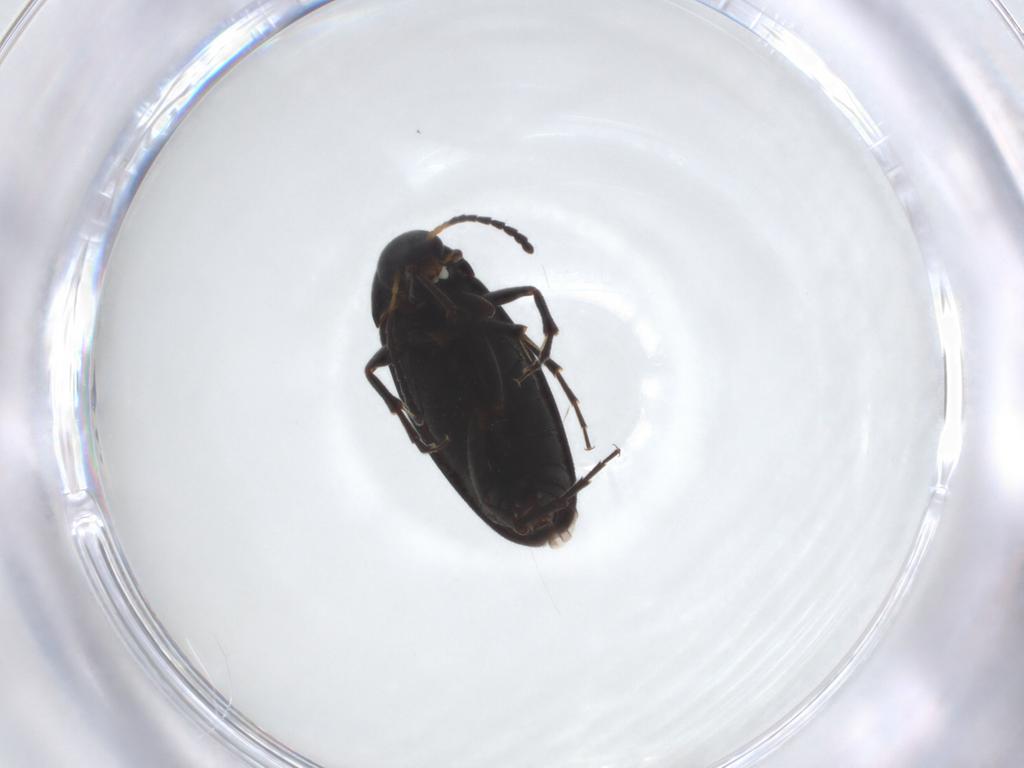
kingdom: Animalia
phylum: Arthropoda
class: Insecta
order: Coleoptera
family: Scraptiidae
